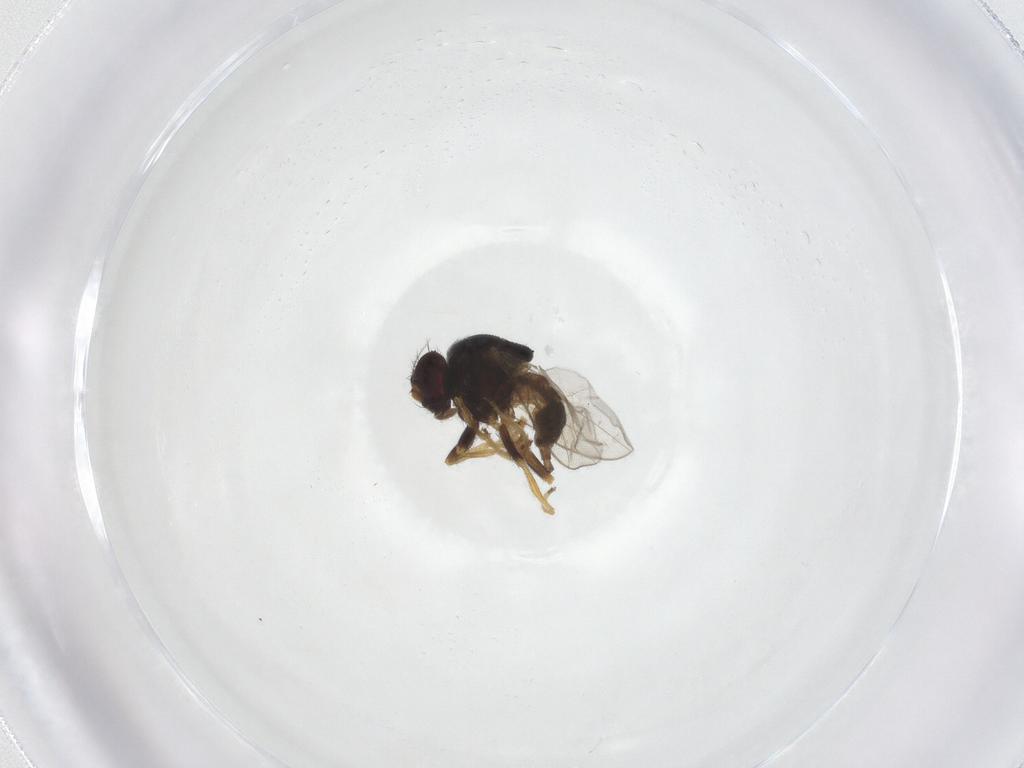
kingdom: Animalia
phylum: Arthropoda
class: Insecta
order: Diptera
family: Chloropidae
